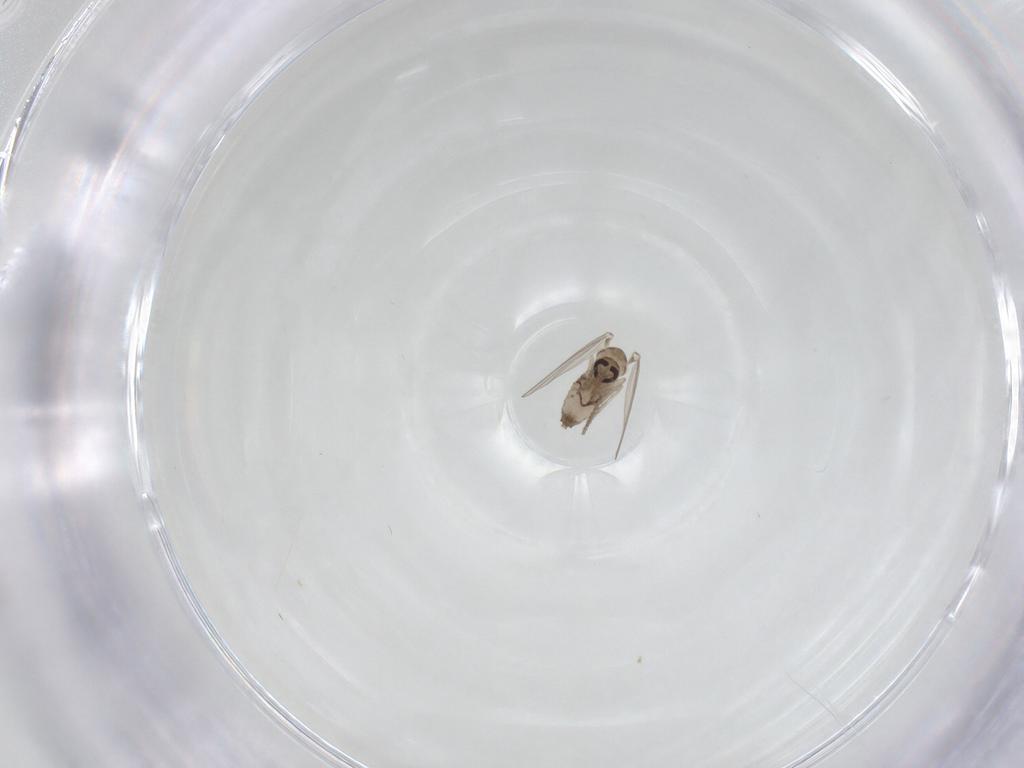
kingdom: Animalia
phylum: Arthropoda
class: Insecta
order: Diptera
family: Psychodidae
